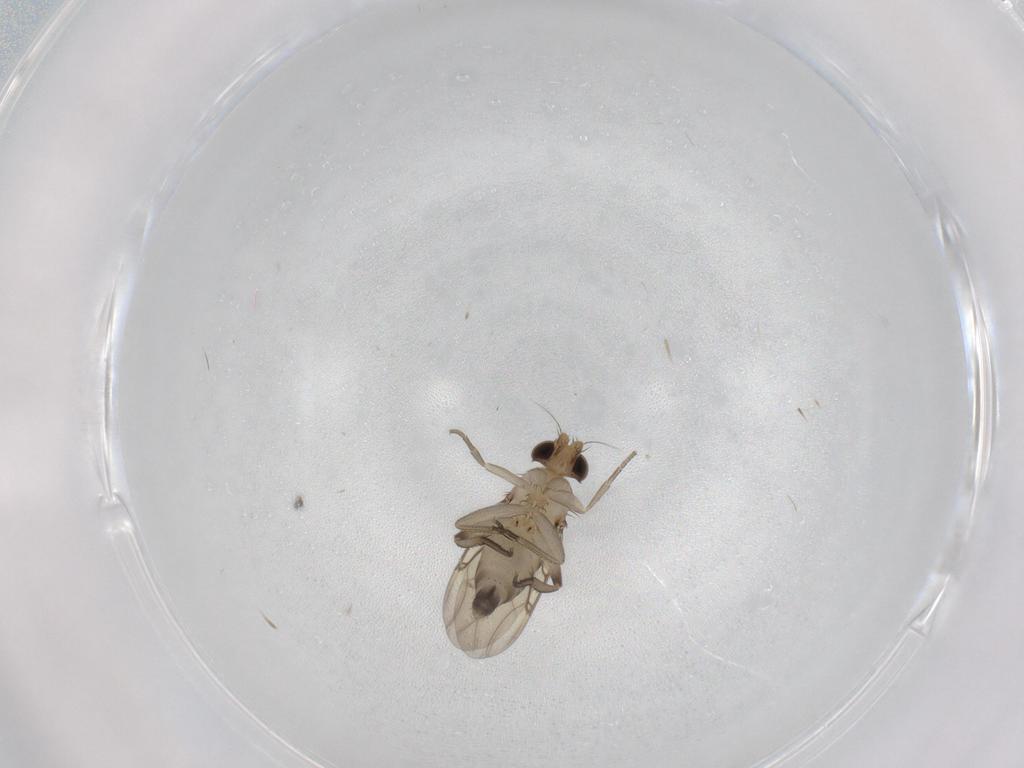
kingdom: Animalia
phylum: Arthropoda
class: Insecta
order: Diptera
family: Phoridae
